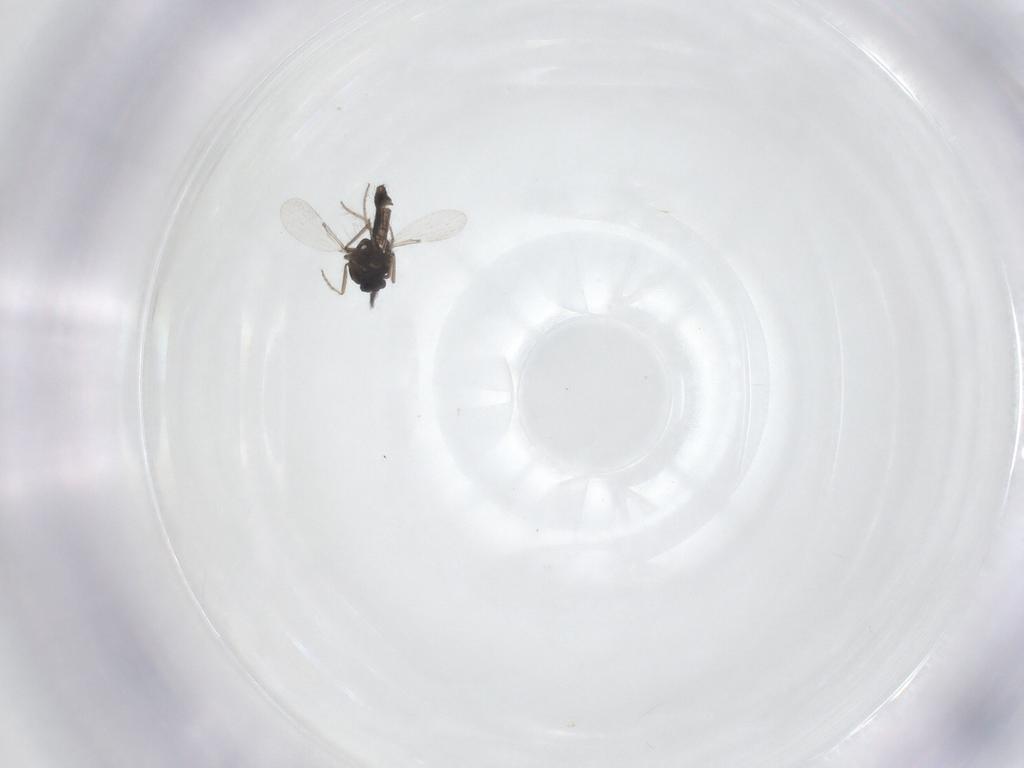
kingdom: Animalia
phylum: Arthropoda
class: Insecta
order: Diptera
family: Ceratopogonidae
